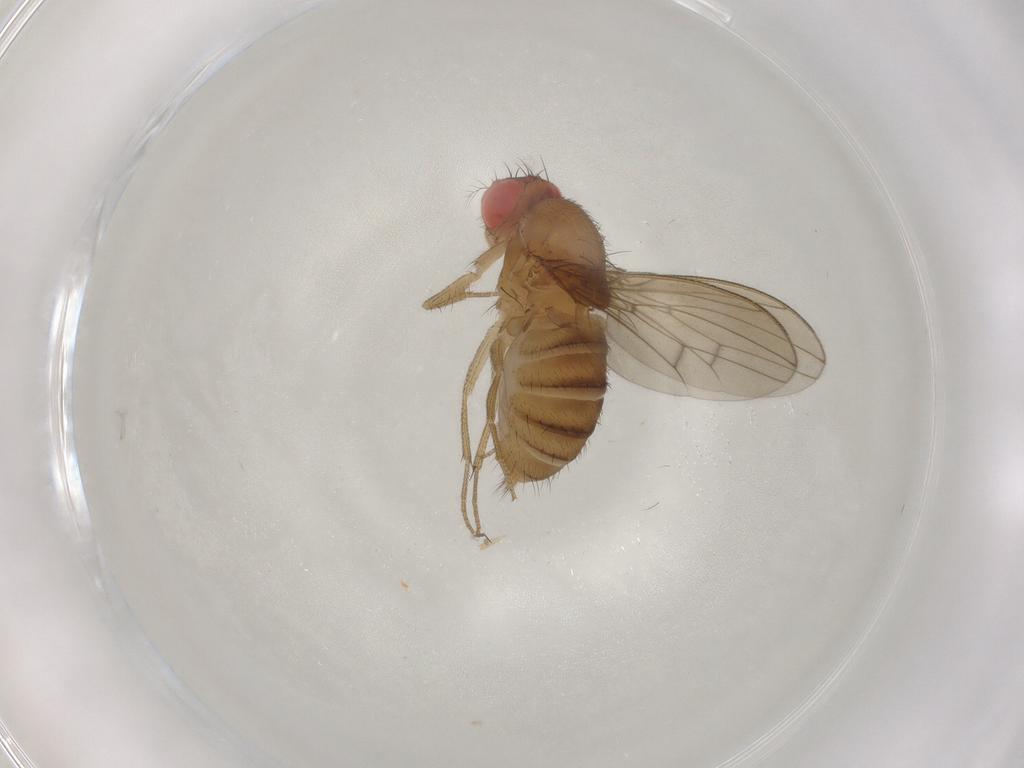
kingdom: Animalia
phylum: Arthropoda
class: Insecta
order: Diptera
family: Drosophilidae
